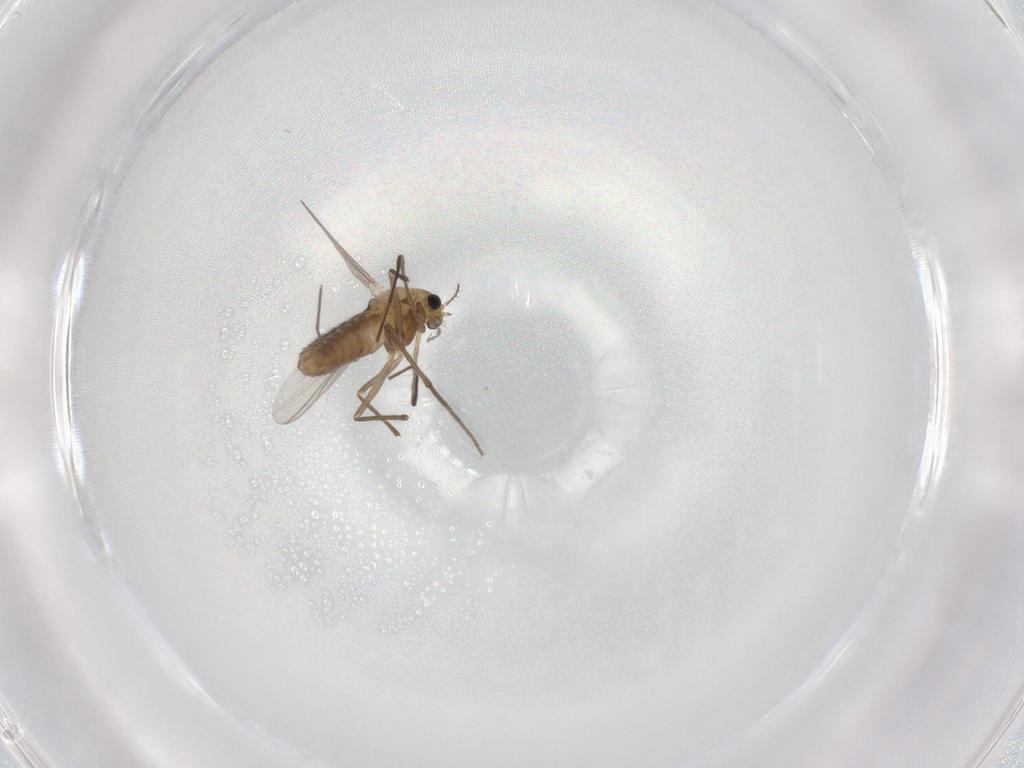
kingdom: Animalia
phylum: Arthropoda
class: Insecta
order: Diptera
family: Chironomidae
